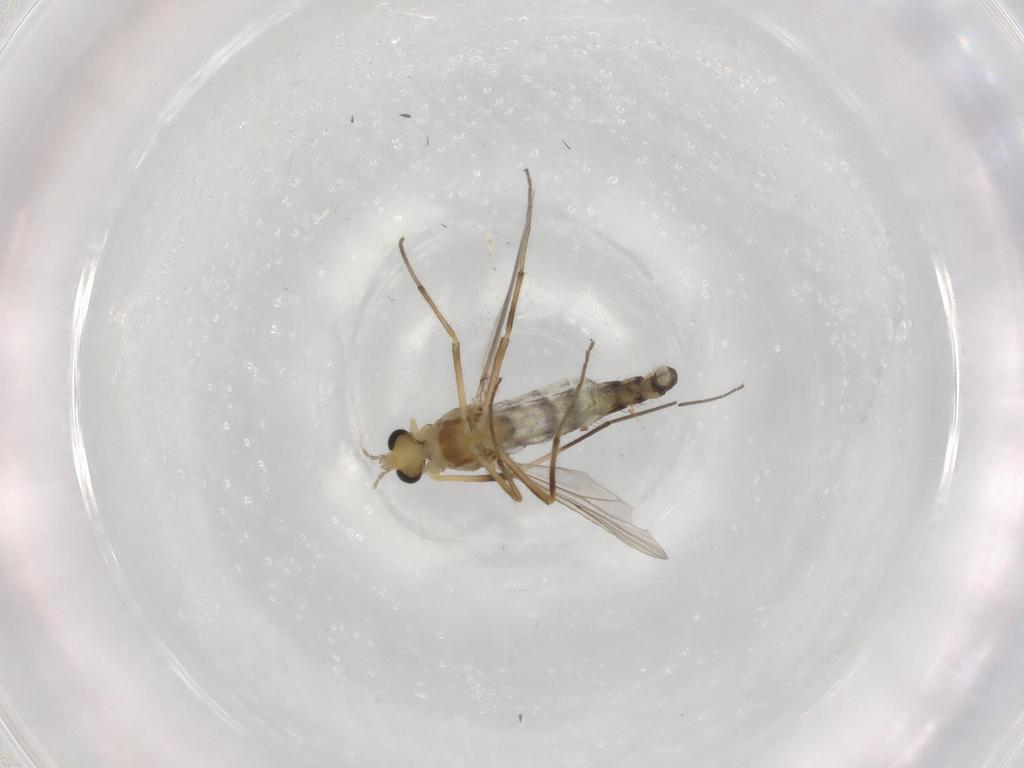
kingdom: Animalia
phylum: Arthropoda
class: Insecta
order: Diptera
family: Chironomidae
